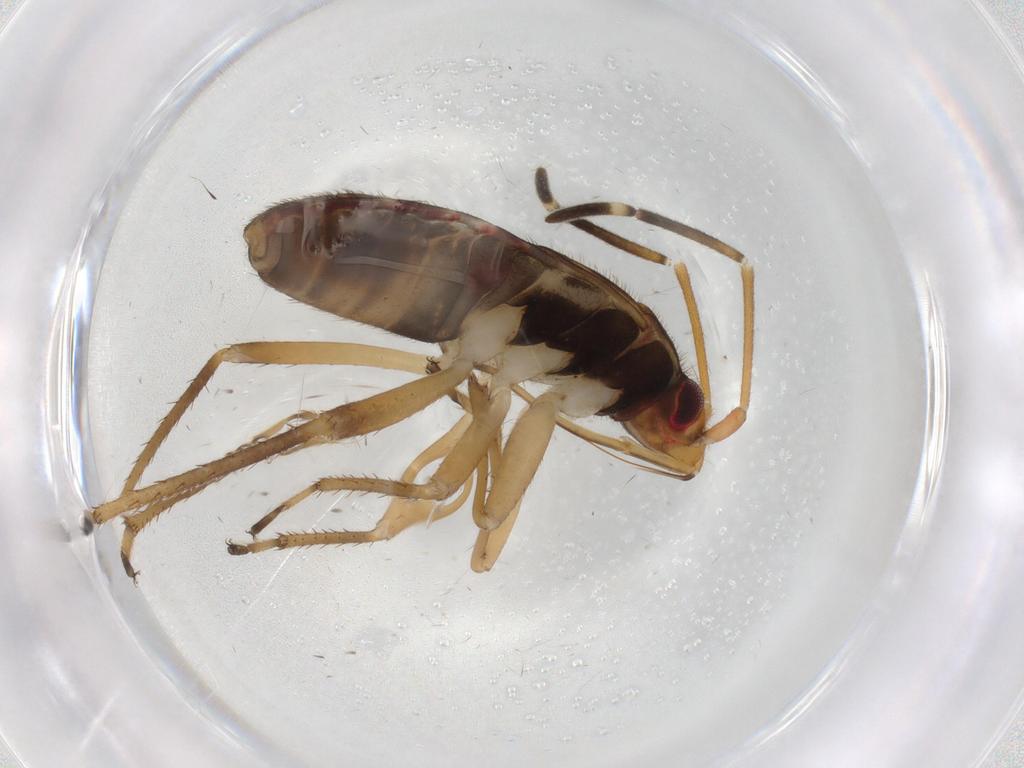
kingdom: Animalia
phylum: Arthropoda
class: Insecta
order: Hemiptera
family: Rhyparochromidae
